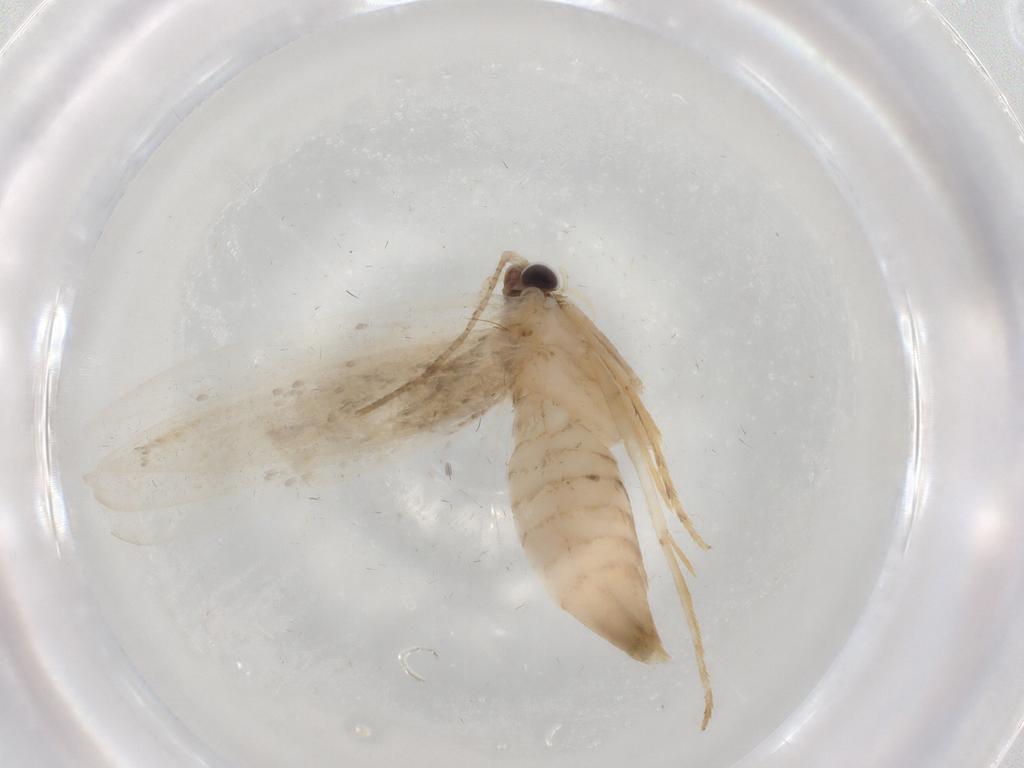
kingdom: Animalia
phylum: Arthropoda
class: Insecta
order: Lepidoptera
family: Tineidae
